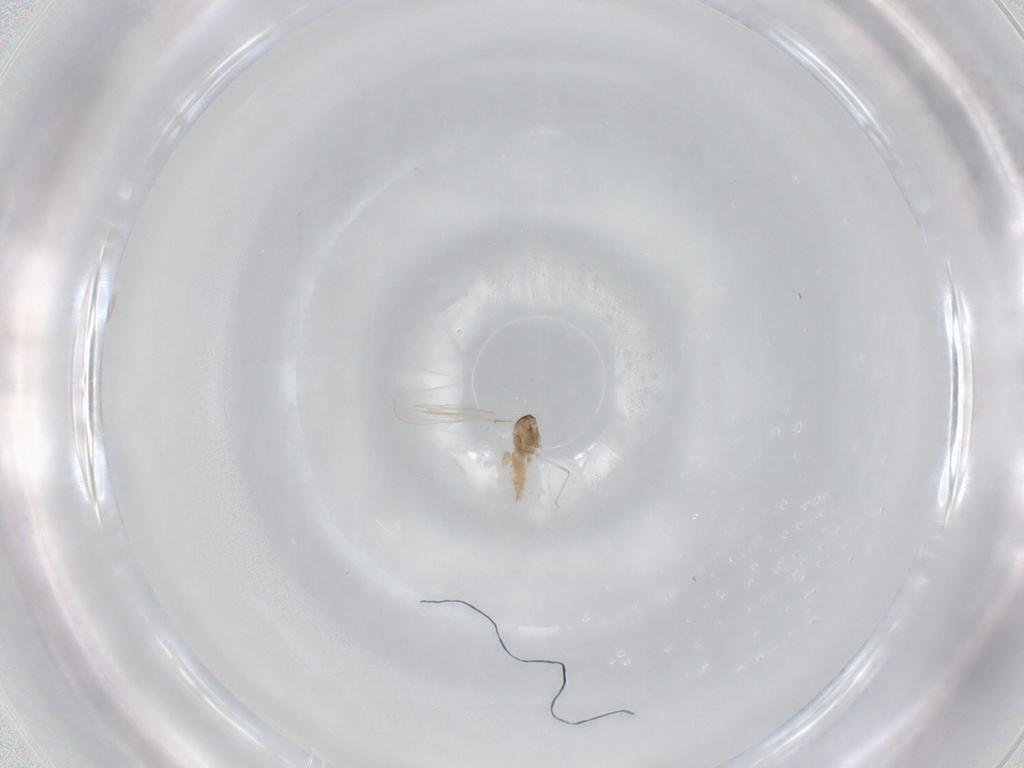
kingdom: Animalia
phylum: Arthropoda
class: Insecta
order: Diptera
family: Cecidomyiidae
